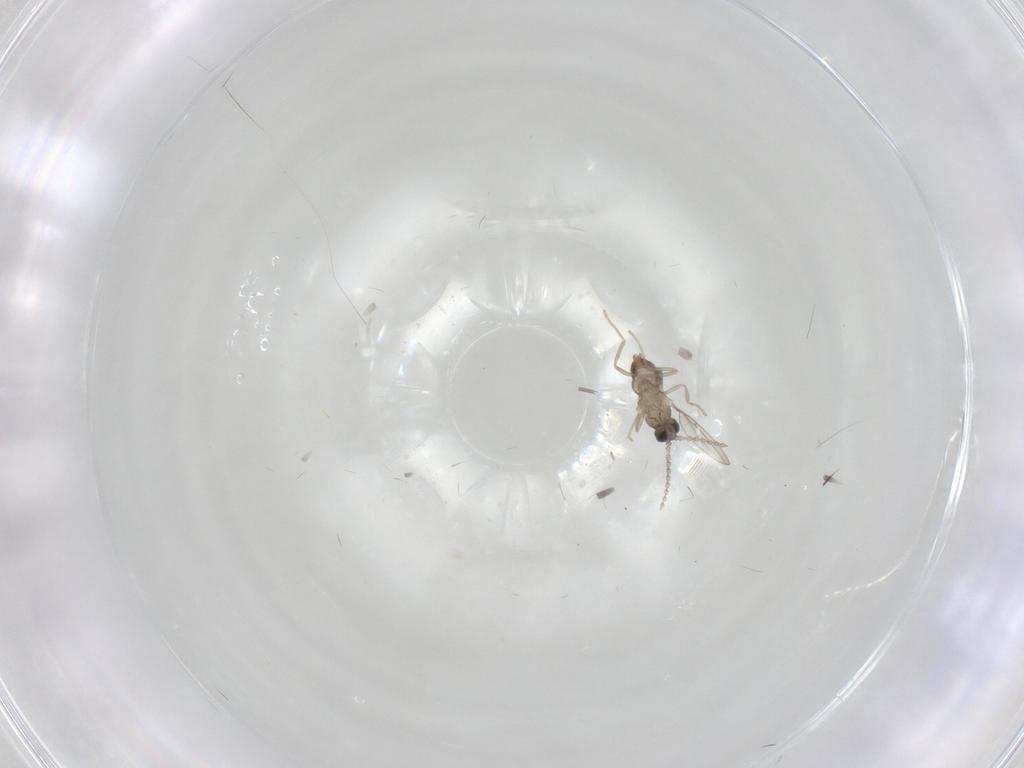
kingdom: Animalia
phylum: Arthropoda
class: Insecta
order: Diptera
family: Cecidomyiidae
